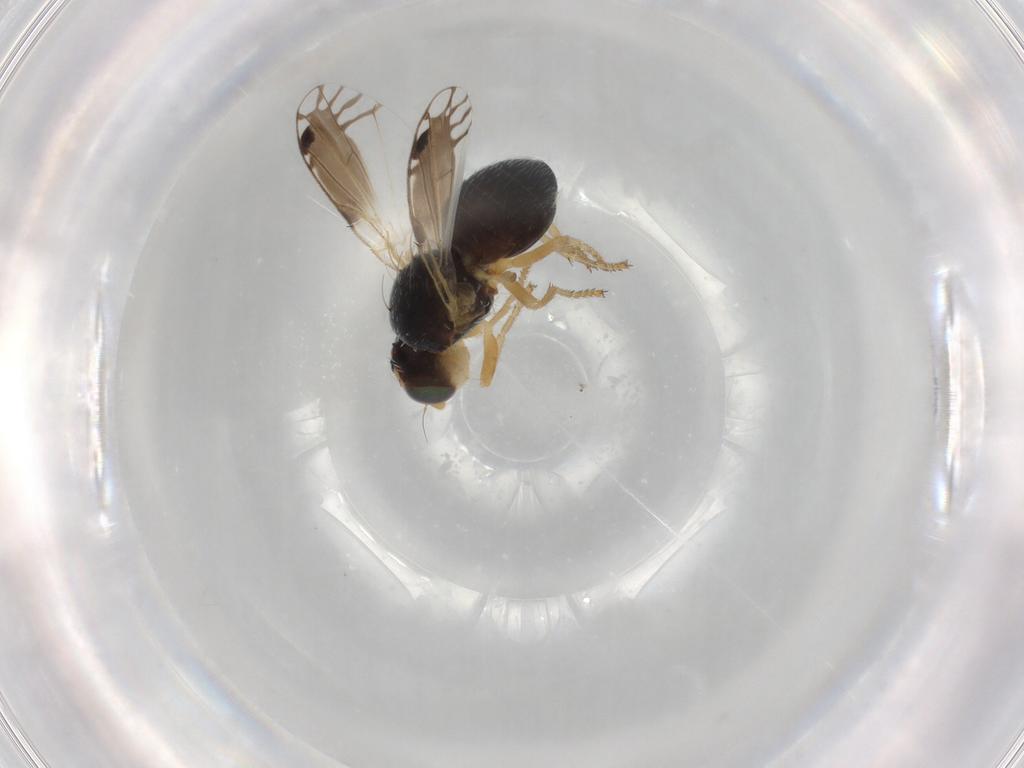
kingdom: Animalia
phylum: Arthropoda
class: Insecta
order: Diptera
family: Tephritidae
